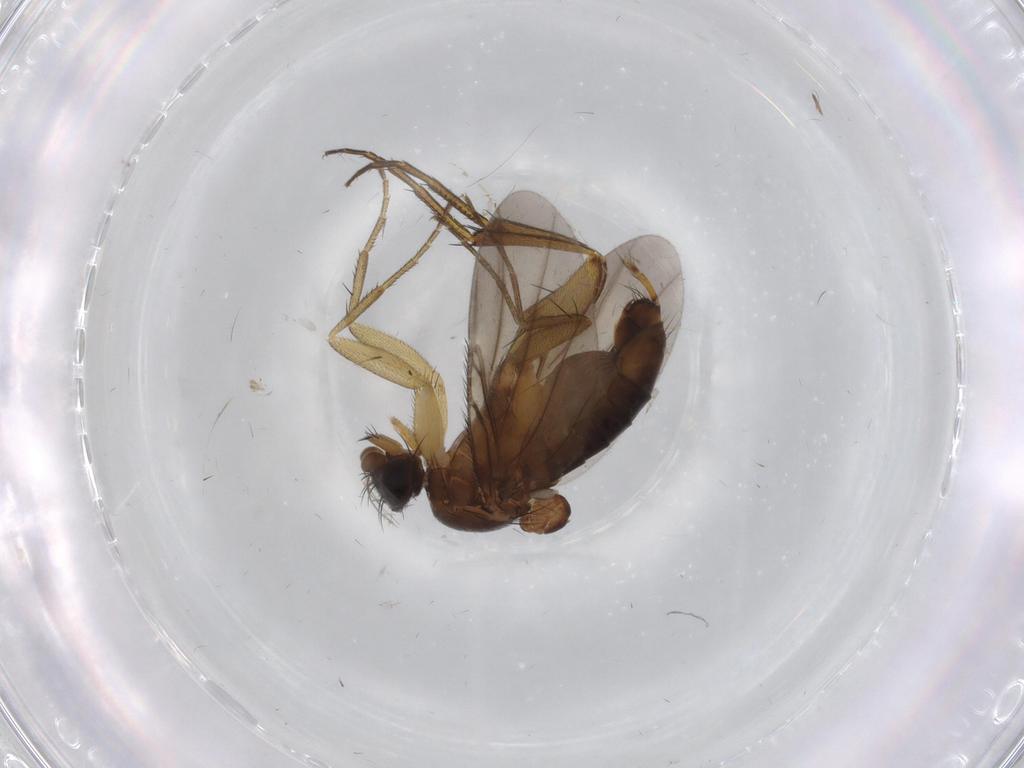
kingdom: Animalia
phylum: Arthropoda
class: Insecta
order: Diptera
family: Phoridae
